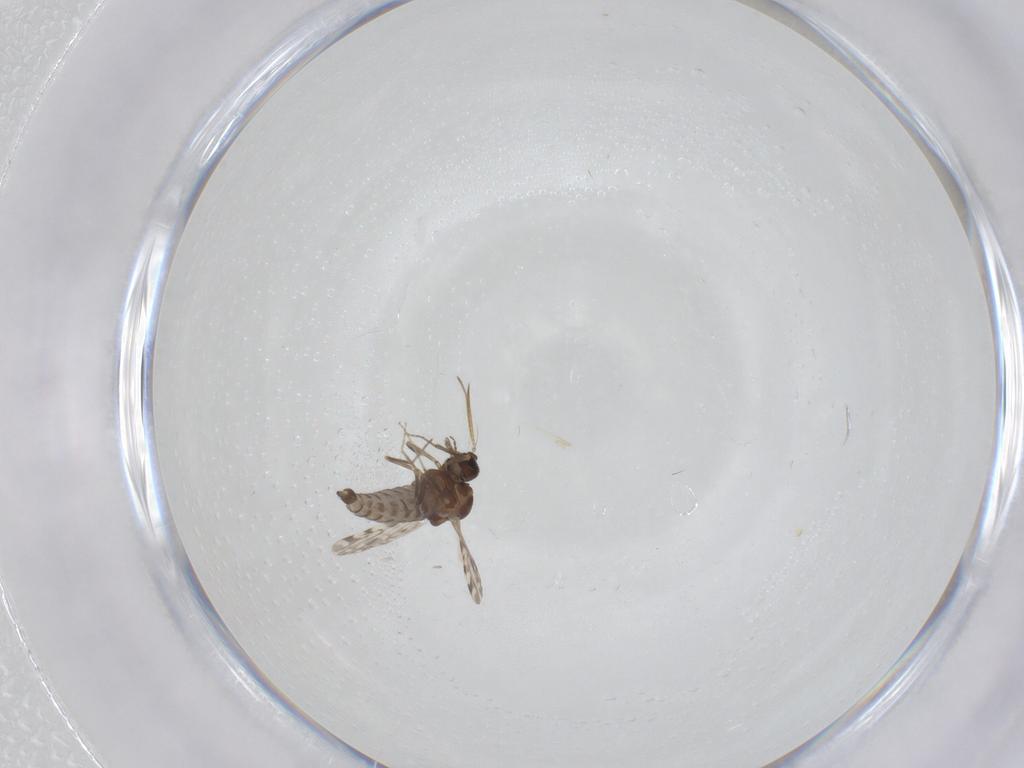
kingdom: Animalia
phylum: Arthropoda
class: Insecta
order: Diptera
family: Ceratopogonidae
